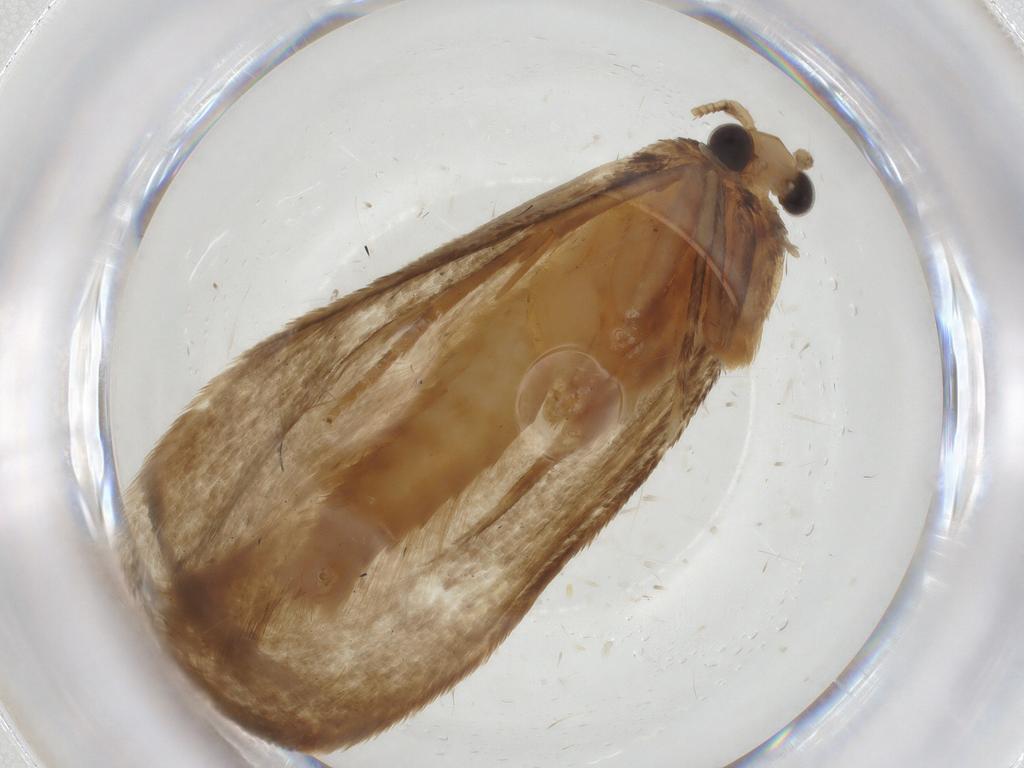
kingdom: Animalia
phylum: Arthropoda
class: Insecta
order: Lepidoptera
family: Tineidae
